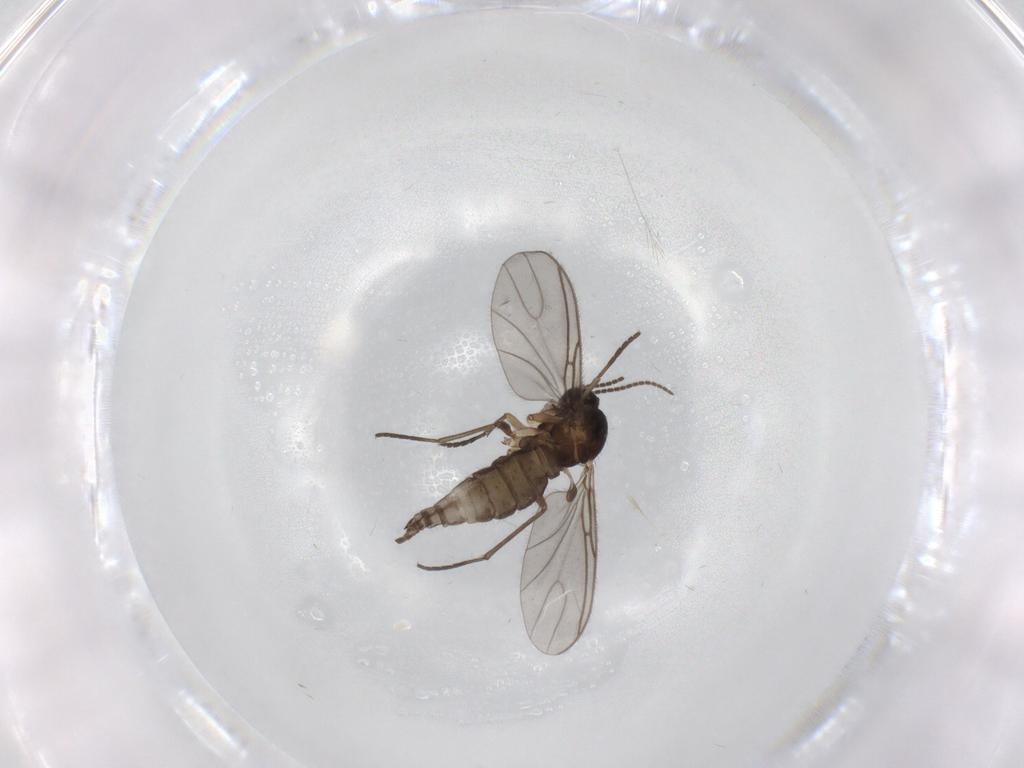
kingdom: Animalia
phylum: Arthropoda
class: Insecta
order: Diptera
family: Sciaridae
